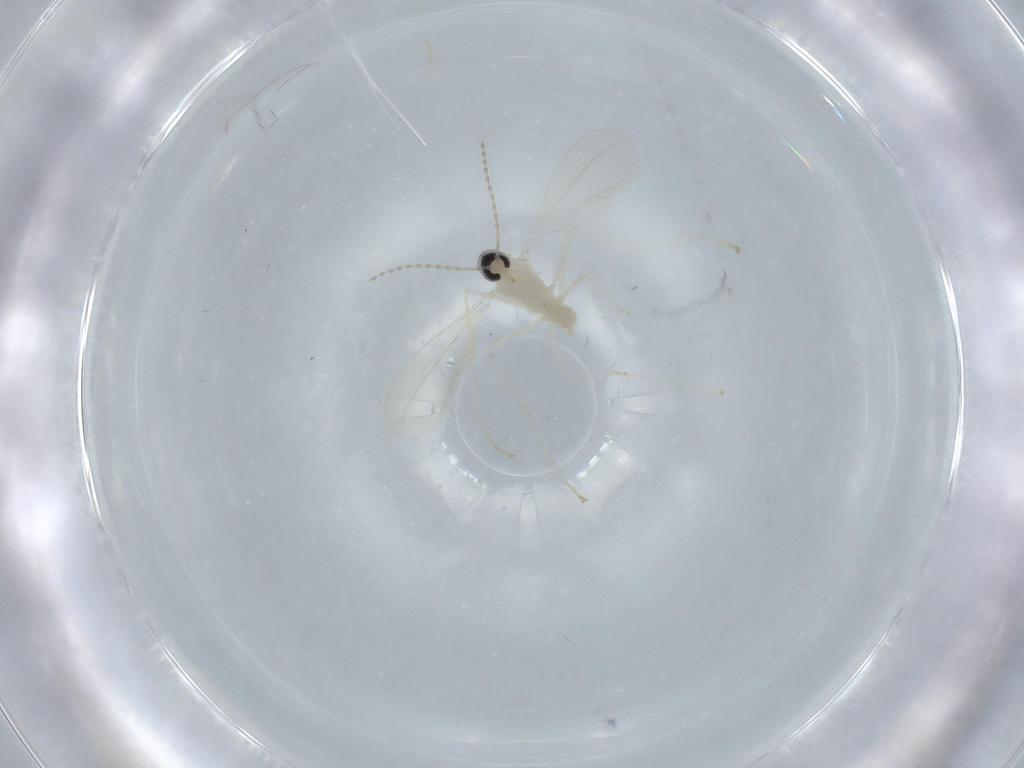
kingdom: Animalia
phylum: Arthropoda
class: Insecta
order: Diptera
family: Cecidomyiidae
